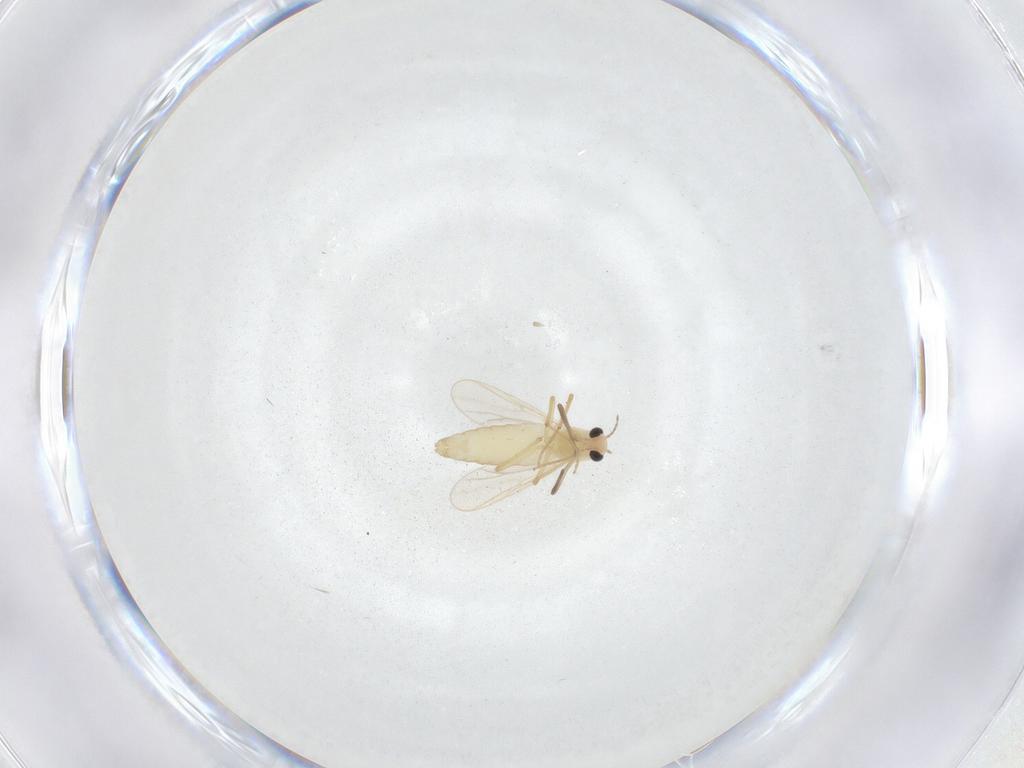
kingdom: Animalia
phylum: Arthropoda
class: Insecta
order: Diptera
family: Chironomidae
